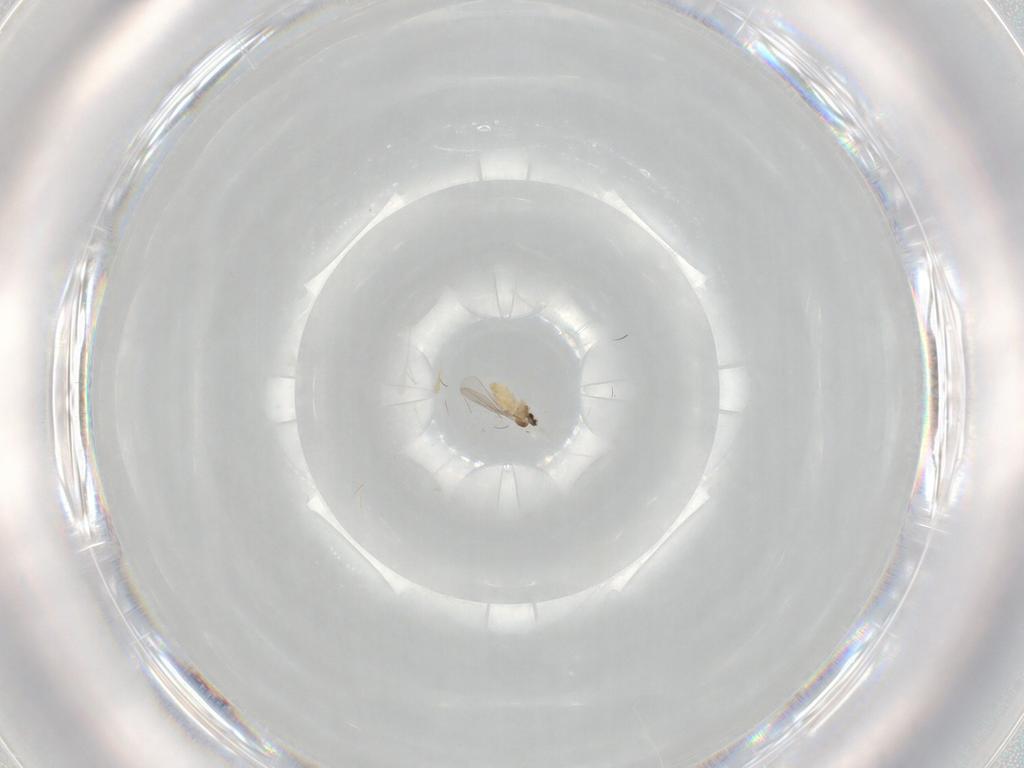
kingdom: Animalia
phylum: Arthropoda
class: Insecta
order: Diptera
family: Cecidomyiidae
